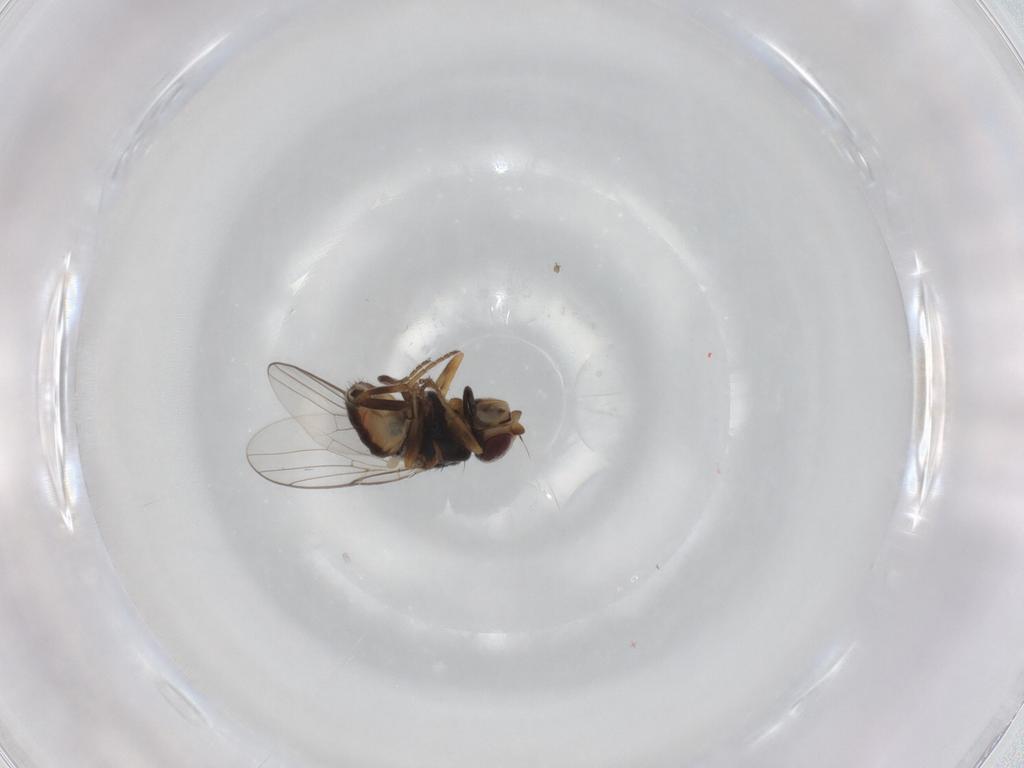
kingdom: Animalia
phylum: Arthropoda
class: Insecta
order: Diptera
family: Chloropidae
